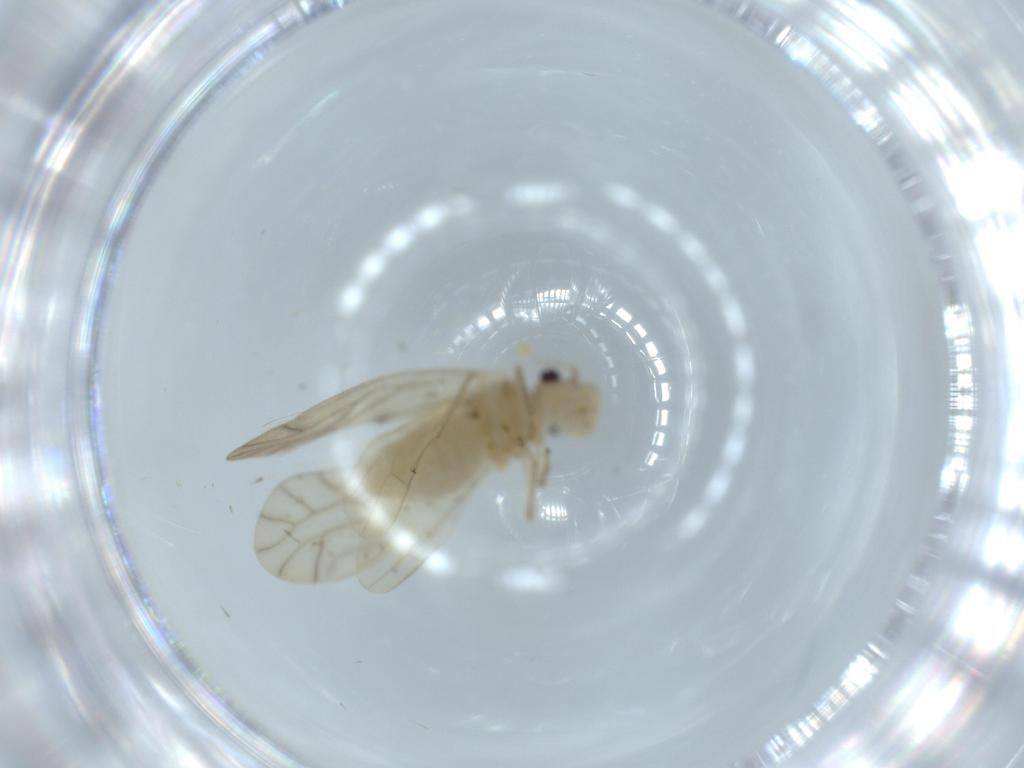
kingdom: Animalia
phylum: Arthropoda
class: Insecta
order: Psocodea
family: Caeciliusidae
